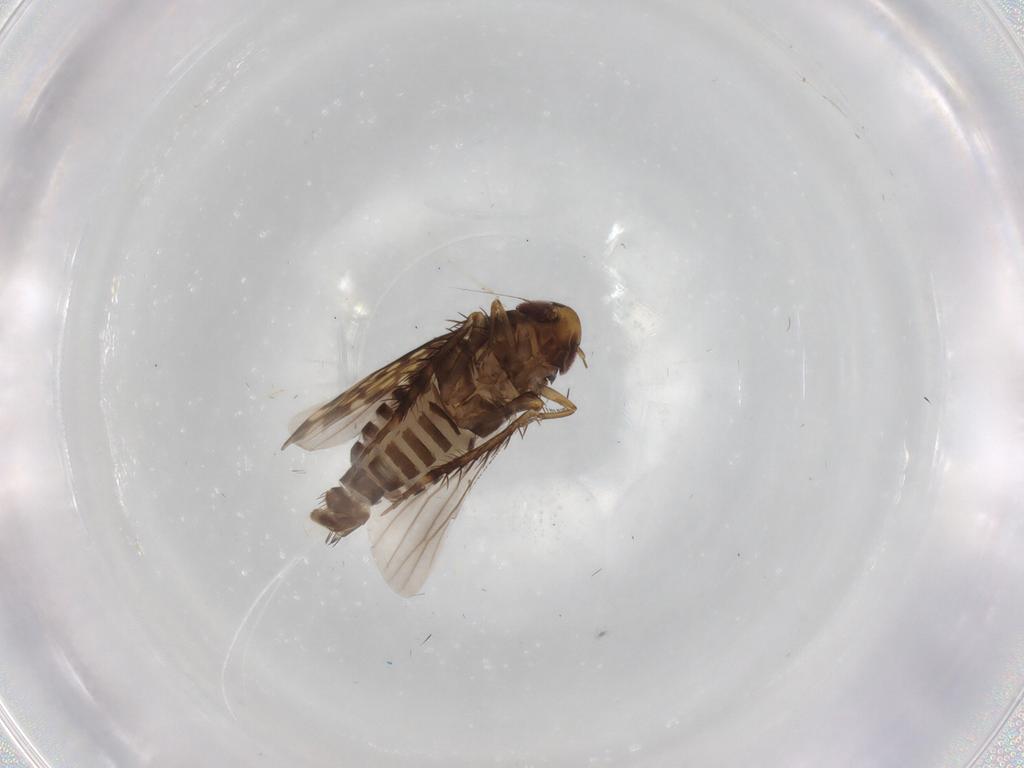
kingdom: Animalia
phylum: Arthropoda
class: Insecta
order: Hemiptera
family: Cicadellidae
